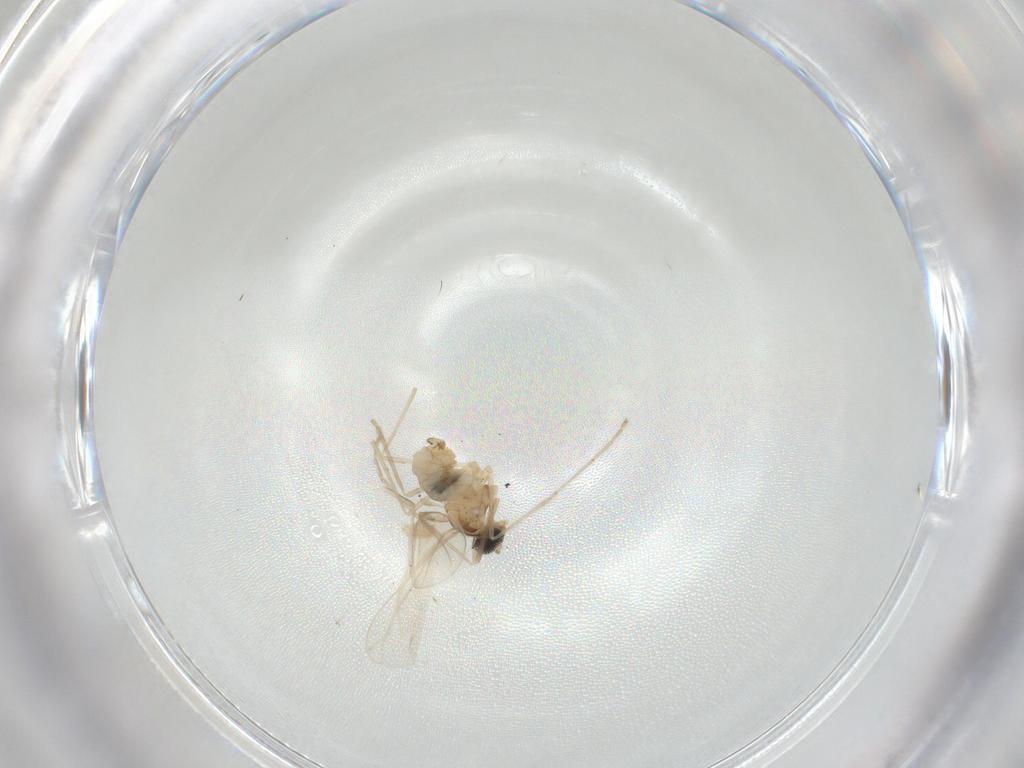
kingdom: Animalia
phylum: Arthropoda
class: Insecta
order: Diptera
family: Cecidomyiidae
